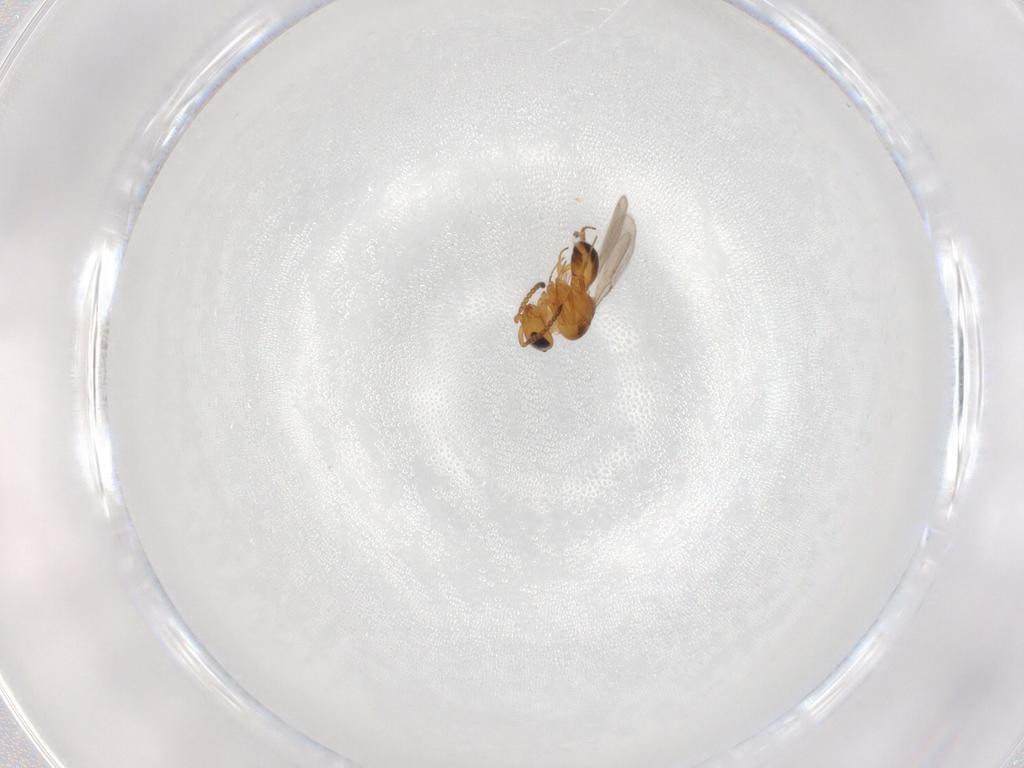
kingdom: Animalia
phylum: Arthropoda
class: Insecta
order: Hymenoptera
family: Scelionidae
